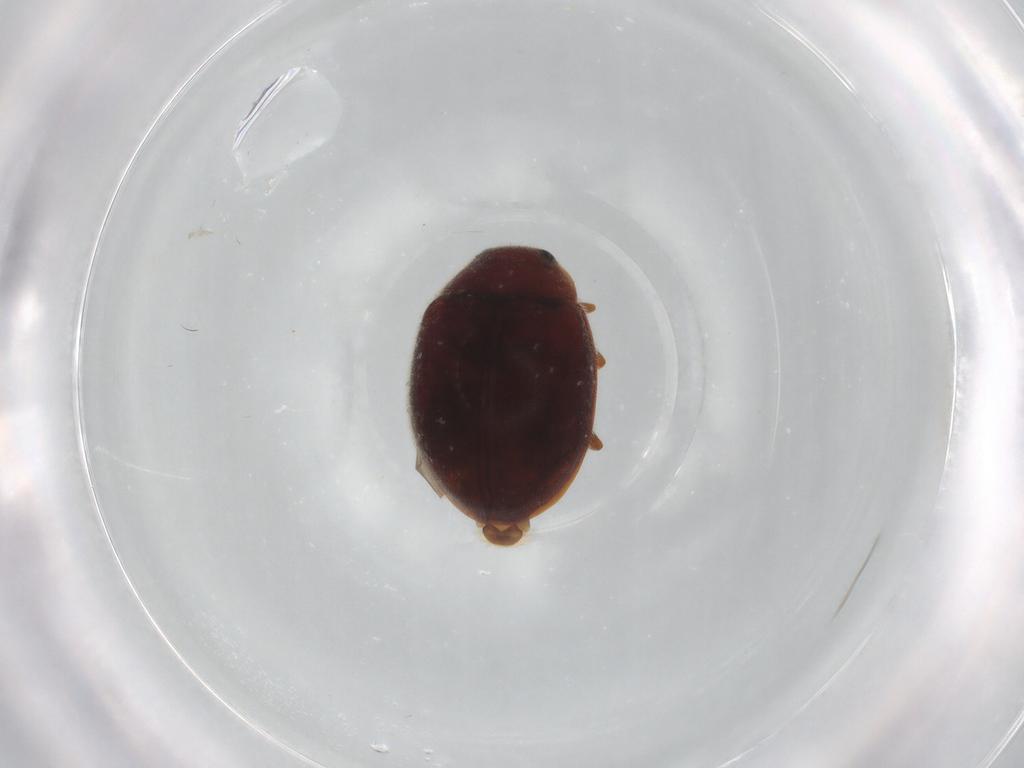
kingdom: Animalia
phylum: Arthropoda
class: Insecta
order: Coleoptera
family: Coccinellidae
